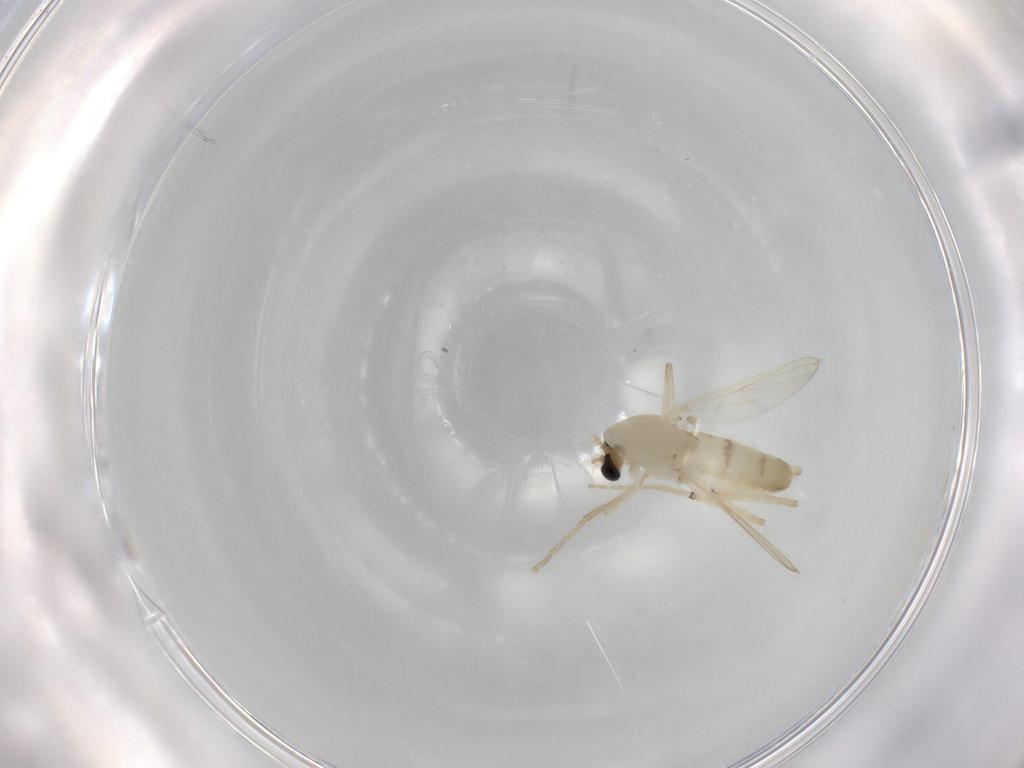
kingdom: Animalia
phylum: Arthropoda
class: Insecta
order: Diptera
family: Chironomidae
